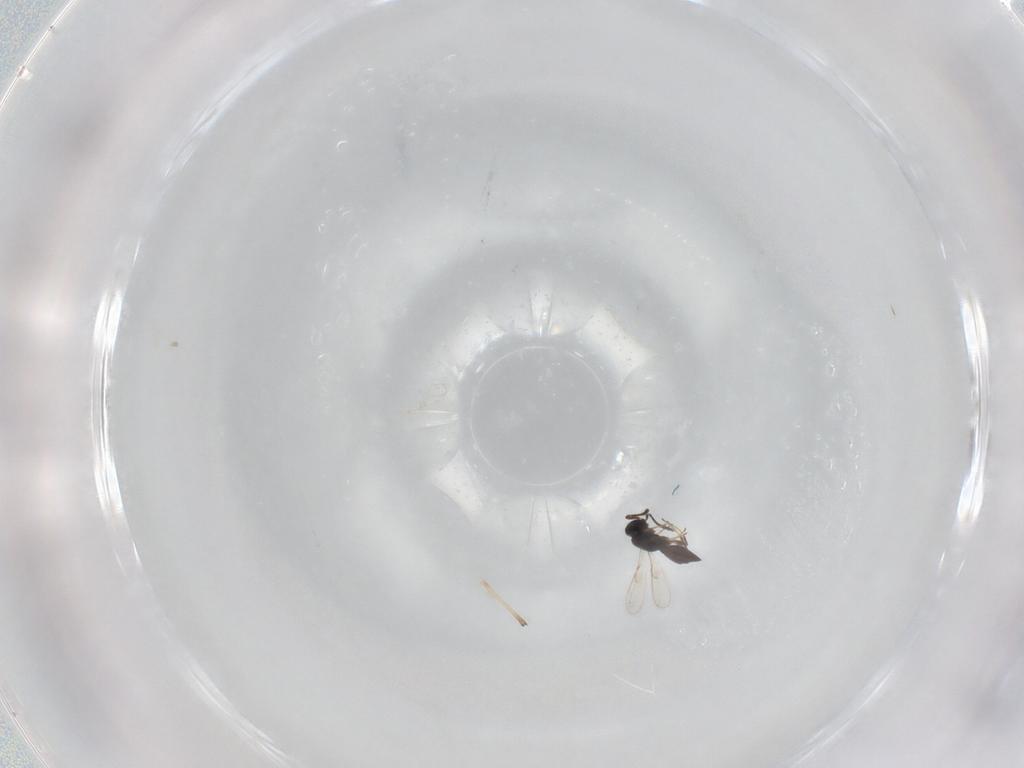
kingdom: Animalia
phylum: Arthropoda
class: Insecta
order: Hymenoptera
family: Scelionidae
